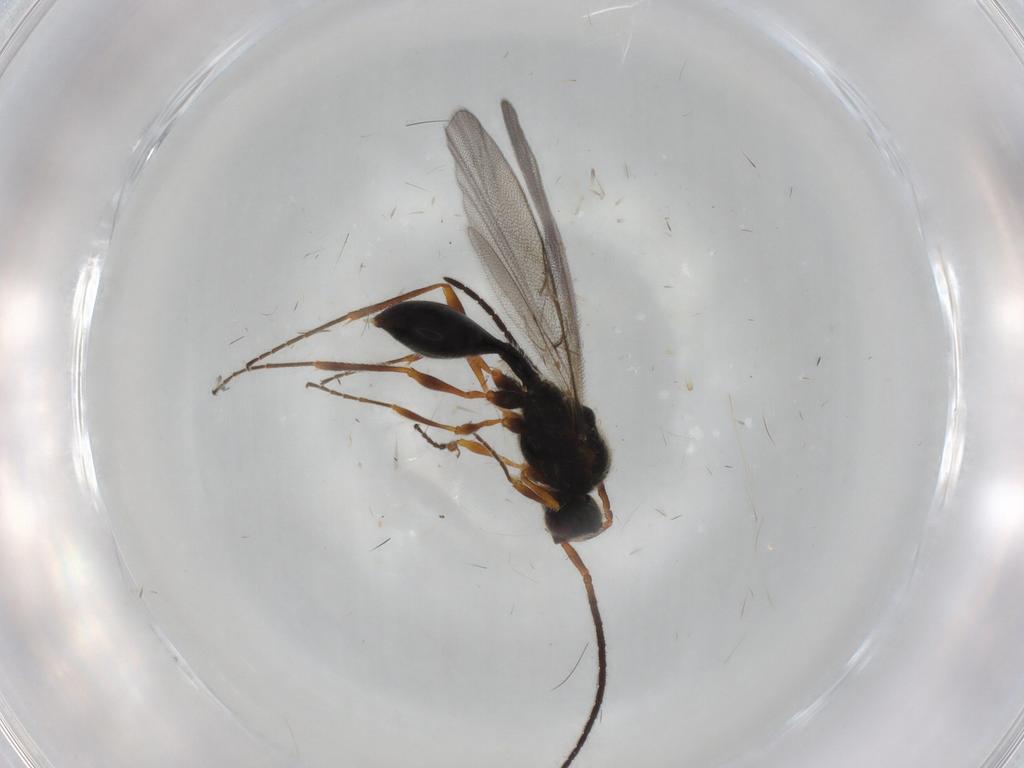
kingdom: Animalia
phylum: Arthropoda
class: Insecta
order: Hymenoptera
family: Diapriidae
